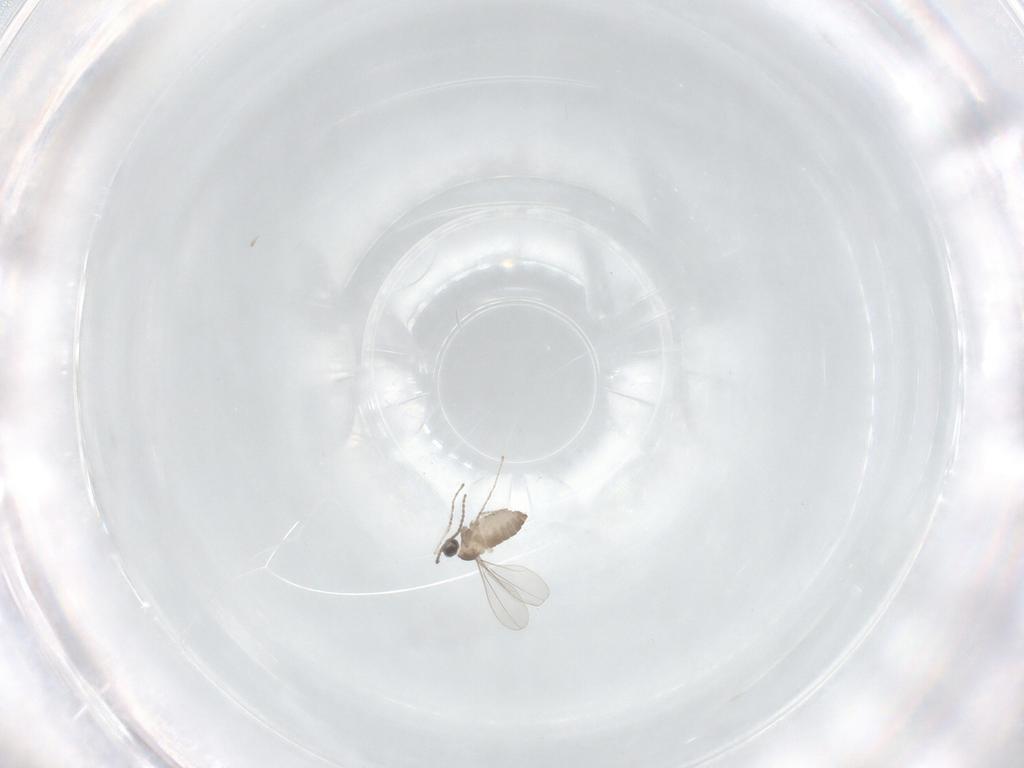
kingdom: Animalia
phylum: Arthropoda
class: Insecta
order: Diptera
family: Cecidomyiidae
